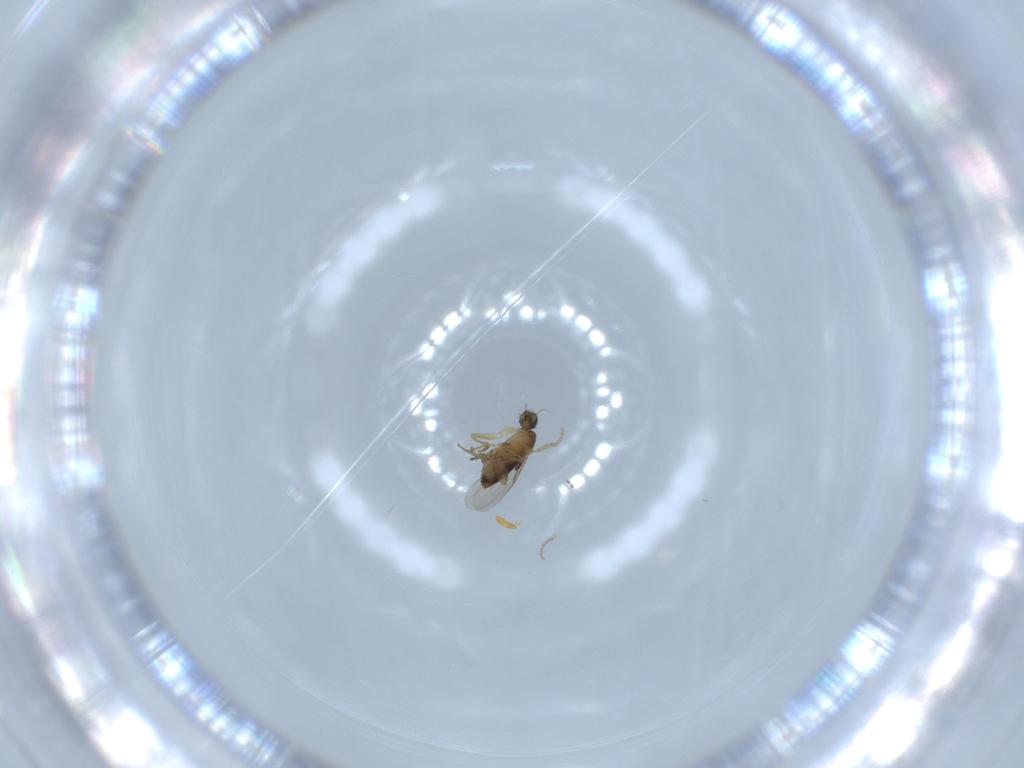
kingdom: Animalia
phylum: Arthropoda
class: Insecta
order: Diptera
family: Phoridae
